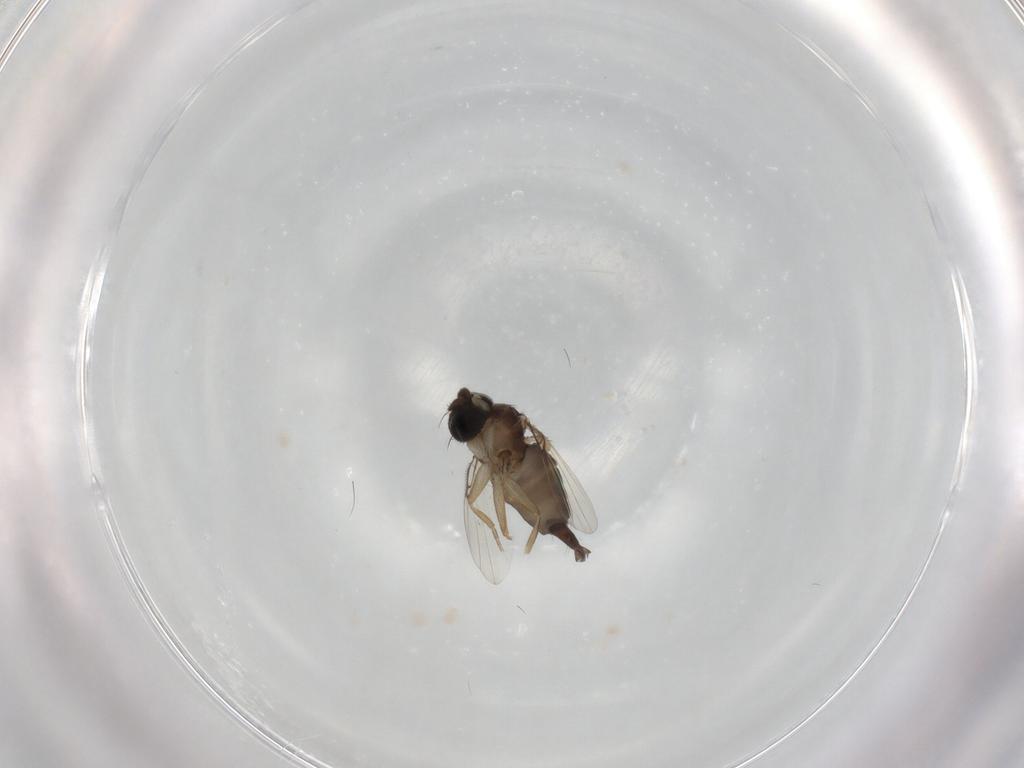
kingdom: Animalia
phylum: Arthropoda
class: Insecta
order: Diptera
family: Phoridae
